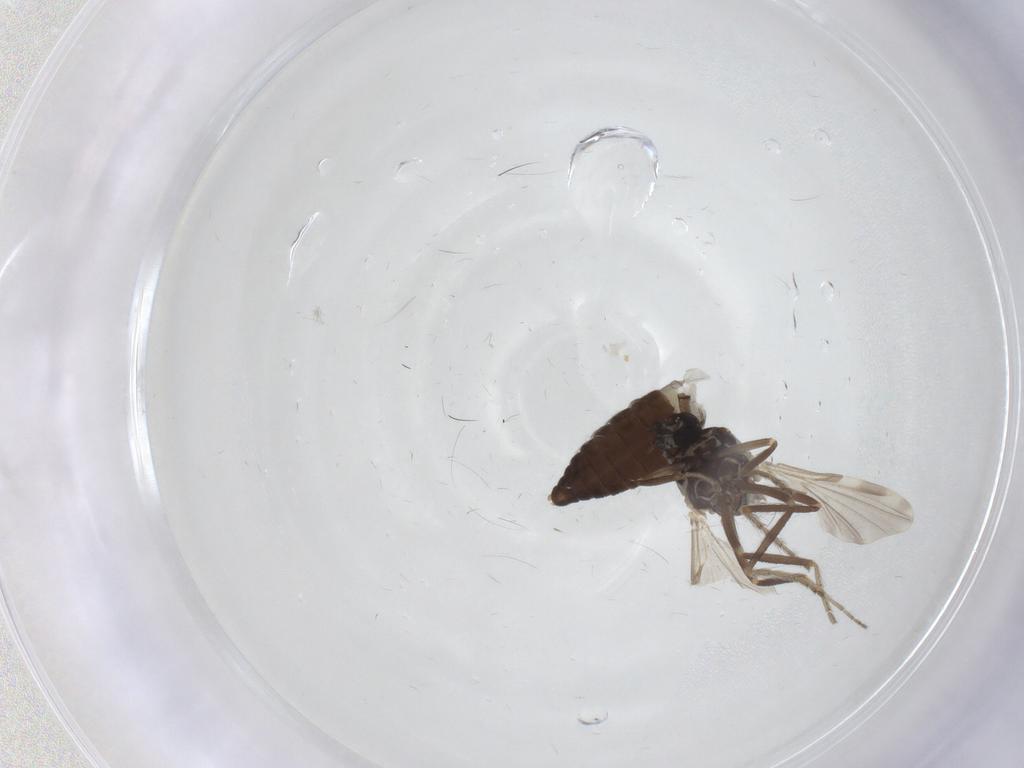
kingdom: Animalia
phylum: Arthropoda
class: Insecta
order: Diptera
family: Ceratopogonidae
